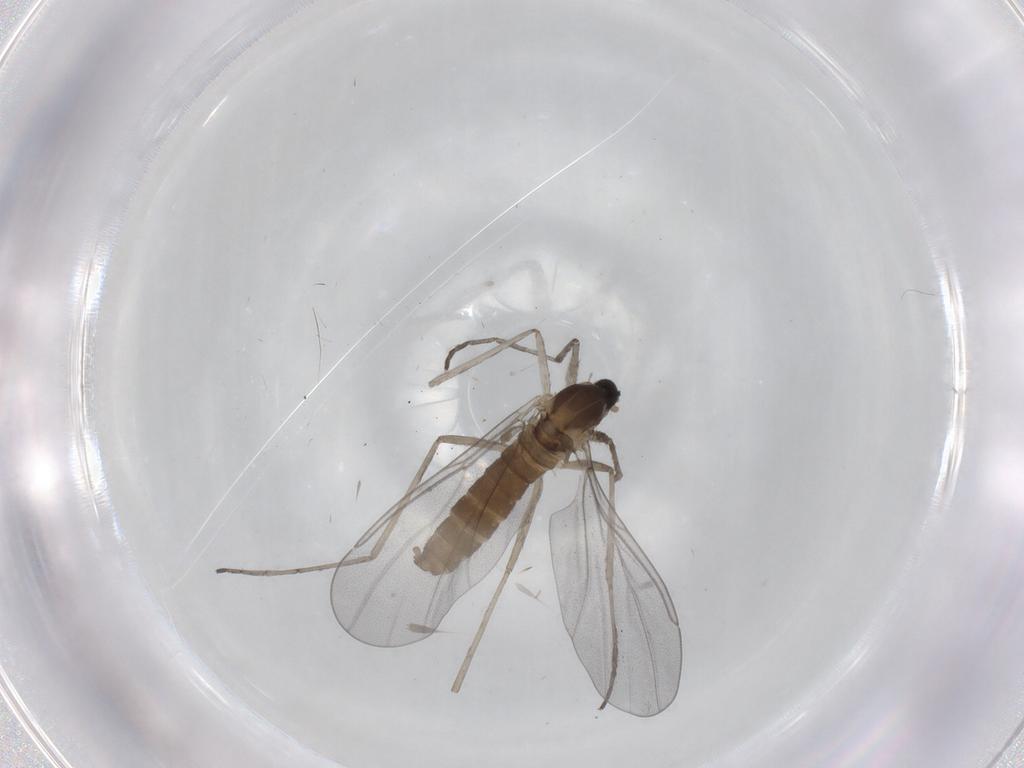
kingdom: Animalia
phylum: Arthropoda
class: Insecta
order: Diptera
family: Cecidomyiidae
